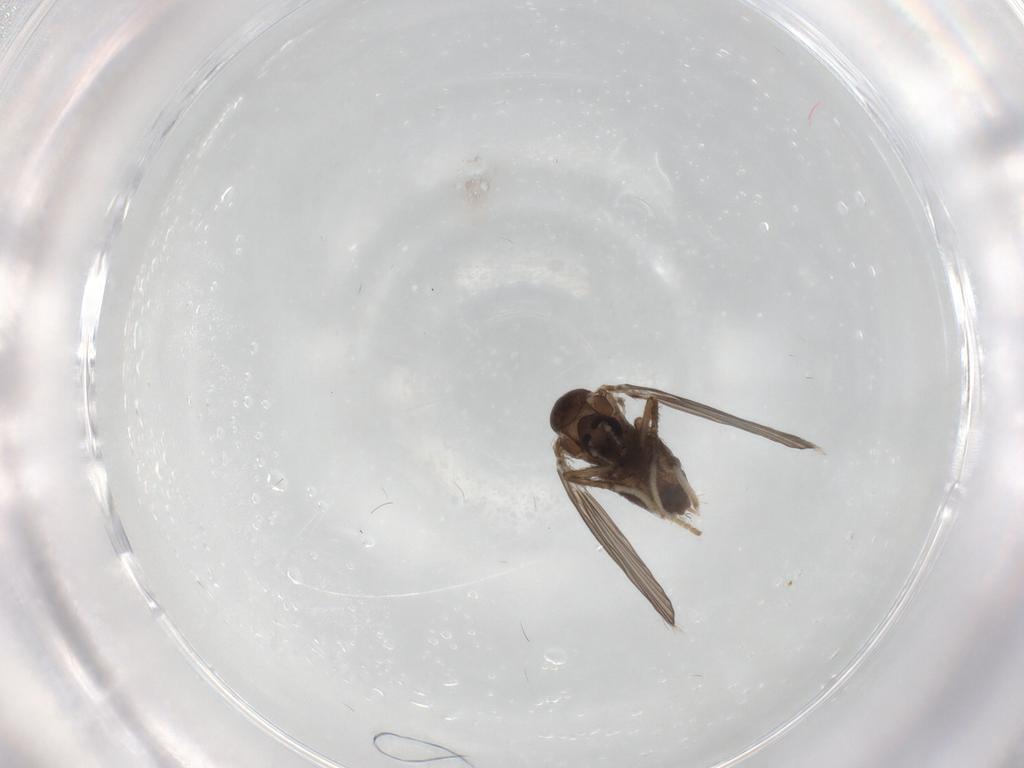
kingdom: Animalia
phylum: Arthropoda
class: Insecta
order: Diptera
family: Psychodidae
